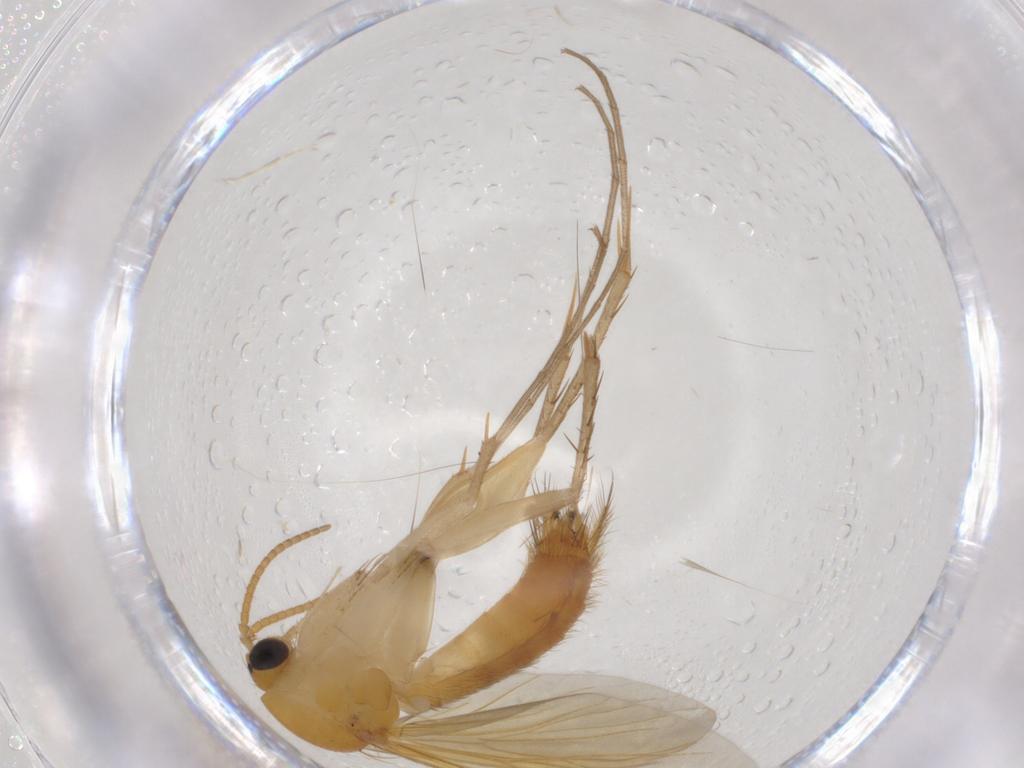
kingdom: Animalia
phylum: Arthropoda
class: Insecta
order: Diptera
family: Mycetophilidae
